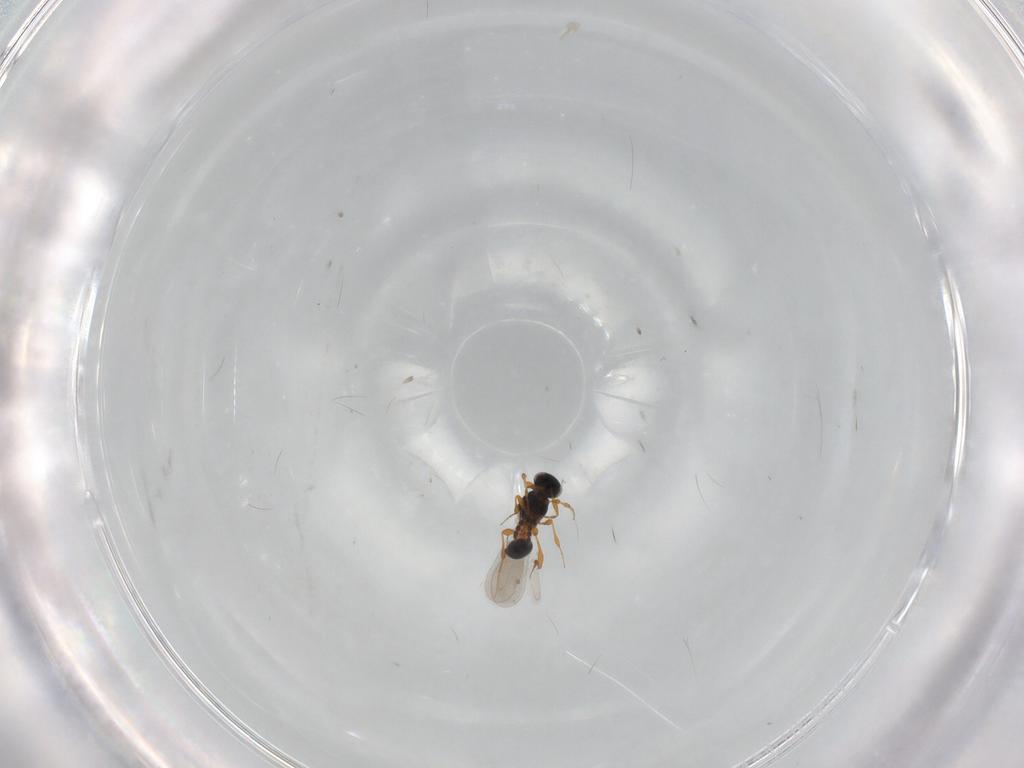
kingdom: Animalia
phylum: Arthropoda
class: Insecta
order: Hymenoptera
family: Platygastridae
